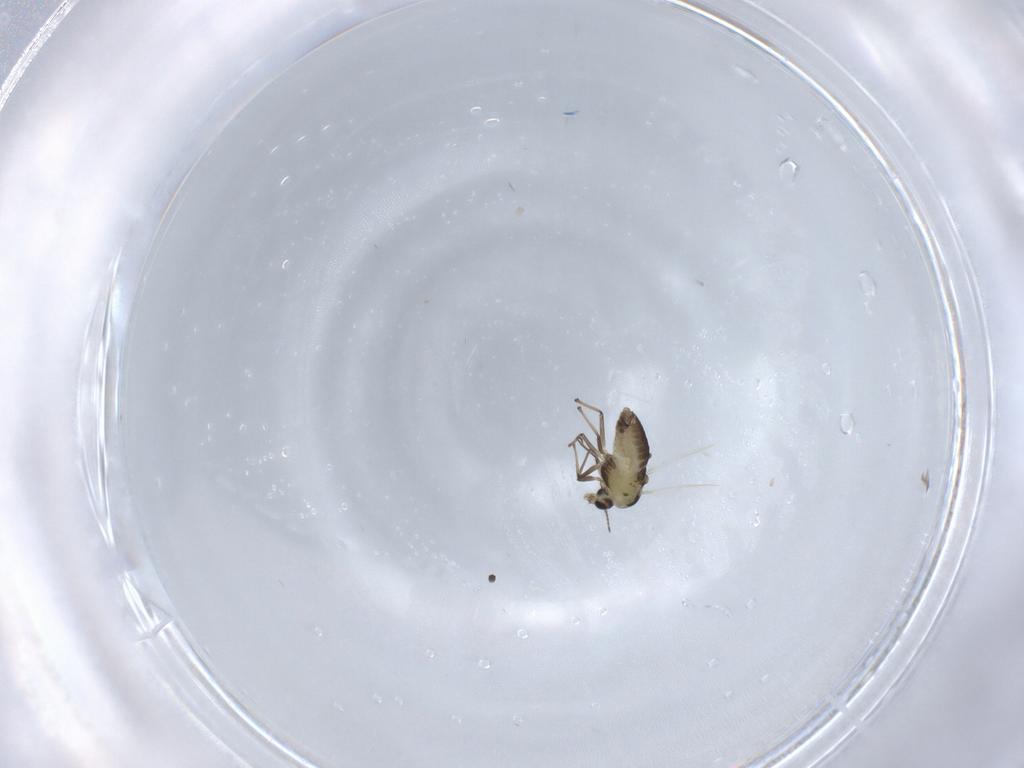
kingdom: Animalia
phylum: Arthropoda
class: Insecta
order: Diptera
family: Chironomidae
